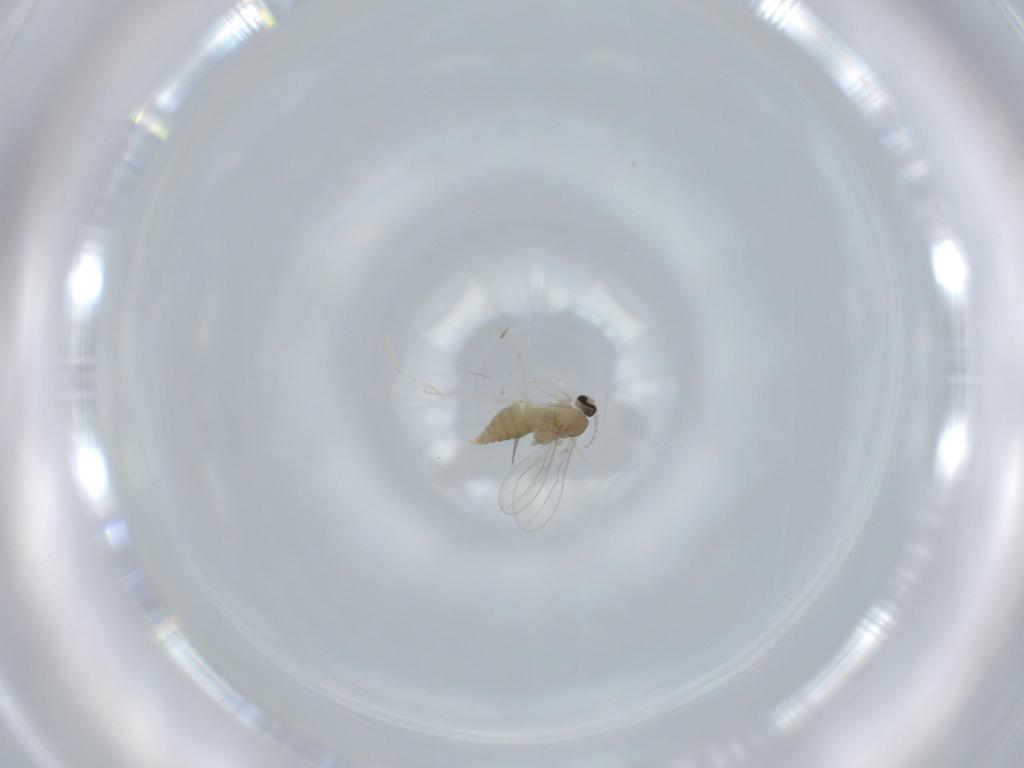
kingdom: Animalia
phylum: Arthropoda
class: Insecta
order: Diptera
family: Cecidomyiidae
